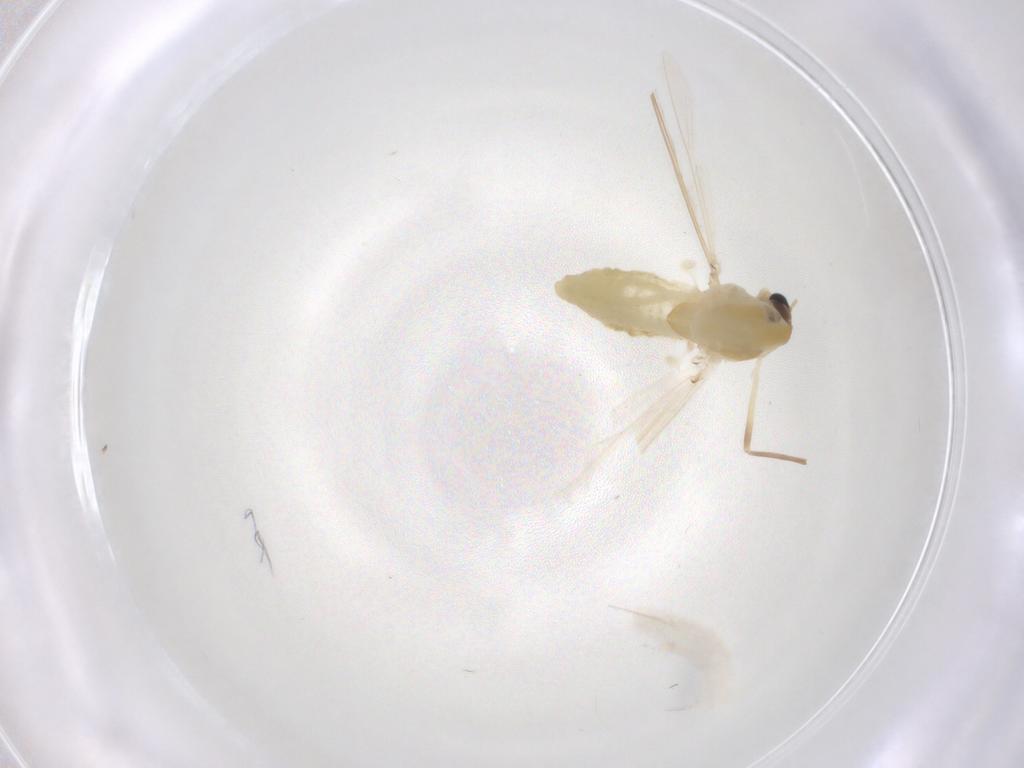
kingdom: Animalia
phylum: Arthropoda
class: Insecta
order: Diptera
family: Chironomidae
